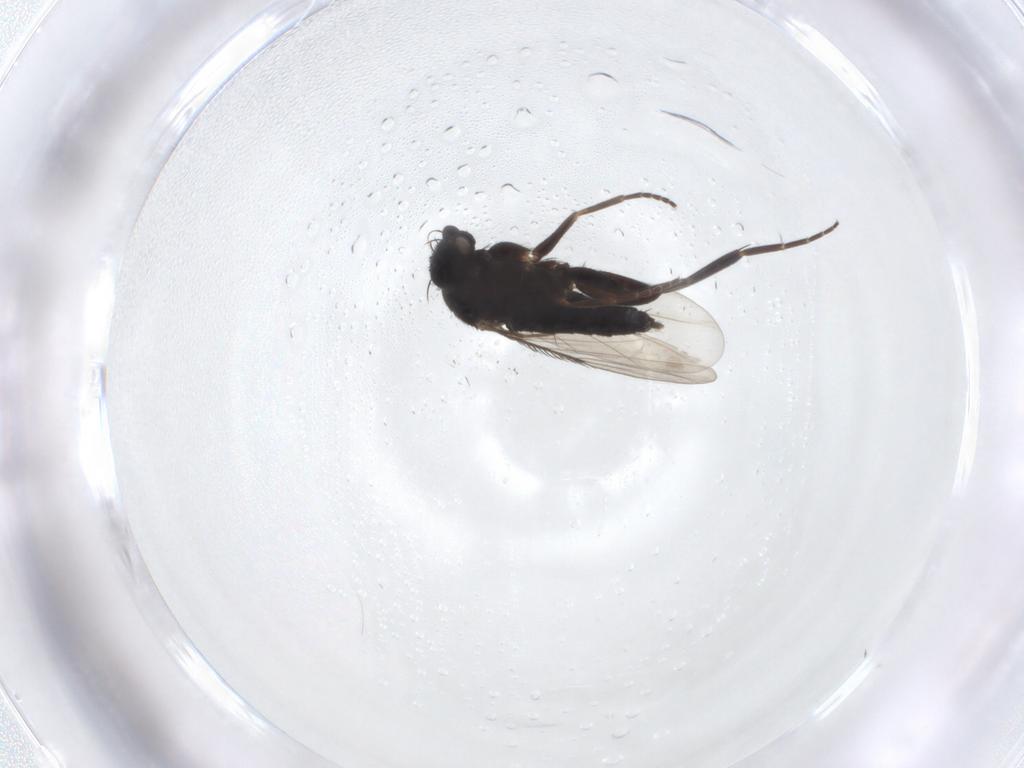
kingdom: Animalia
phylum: Arthropoda
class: Insecta
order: Diptera
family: Phoridae
